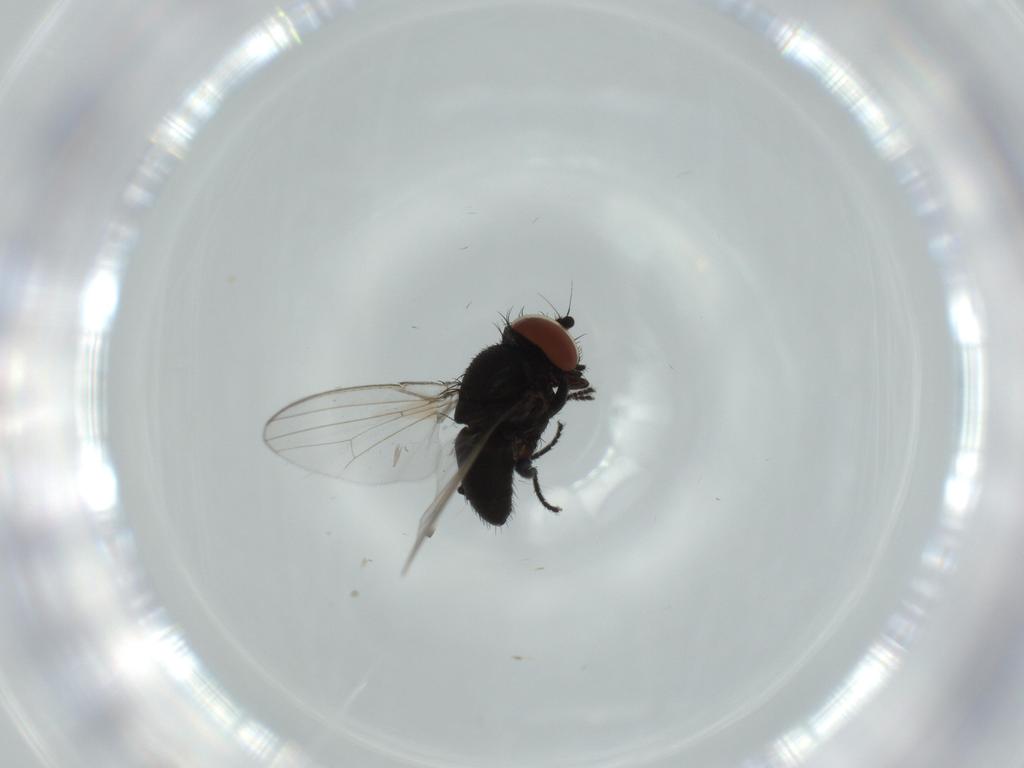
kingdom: Animalia
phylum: Arthropoda
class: Insecta
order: Diptera
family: Milichiidae
